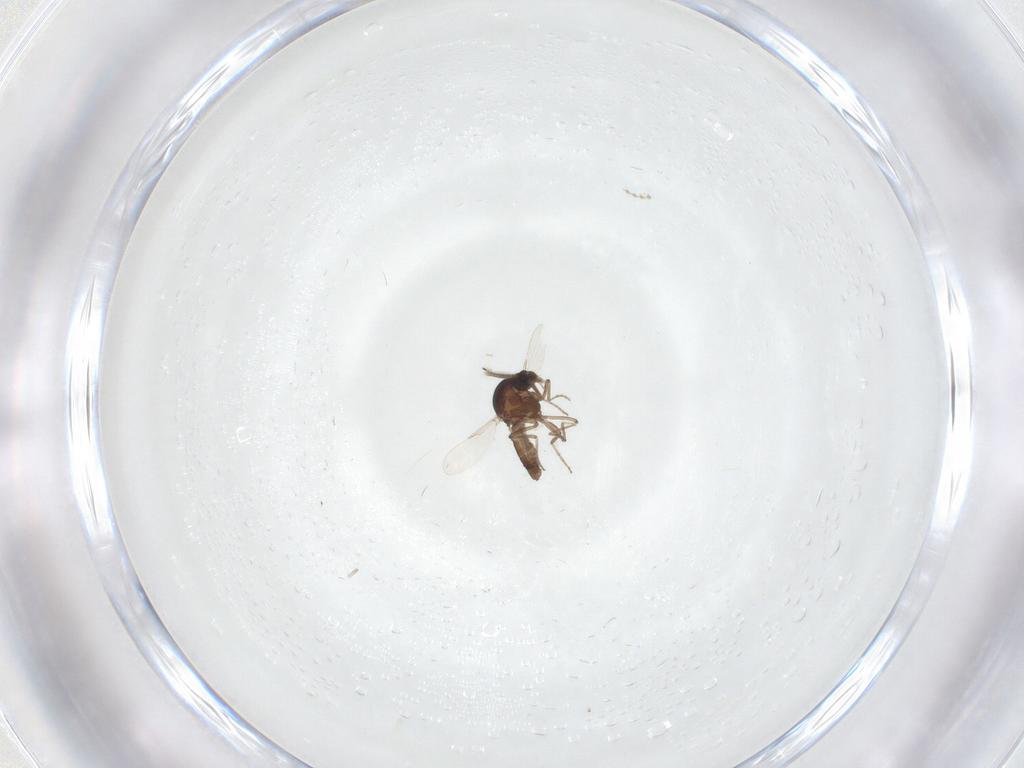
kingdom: Animalia
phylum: Arthropoda
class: Insecta
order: Diptera
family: Ceratopogonidae
